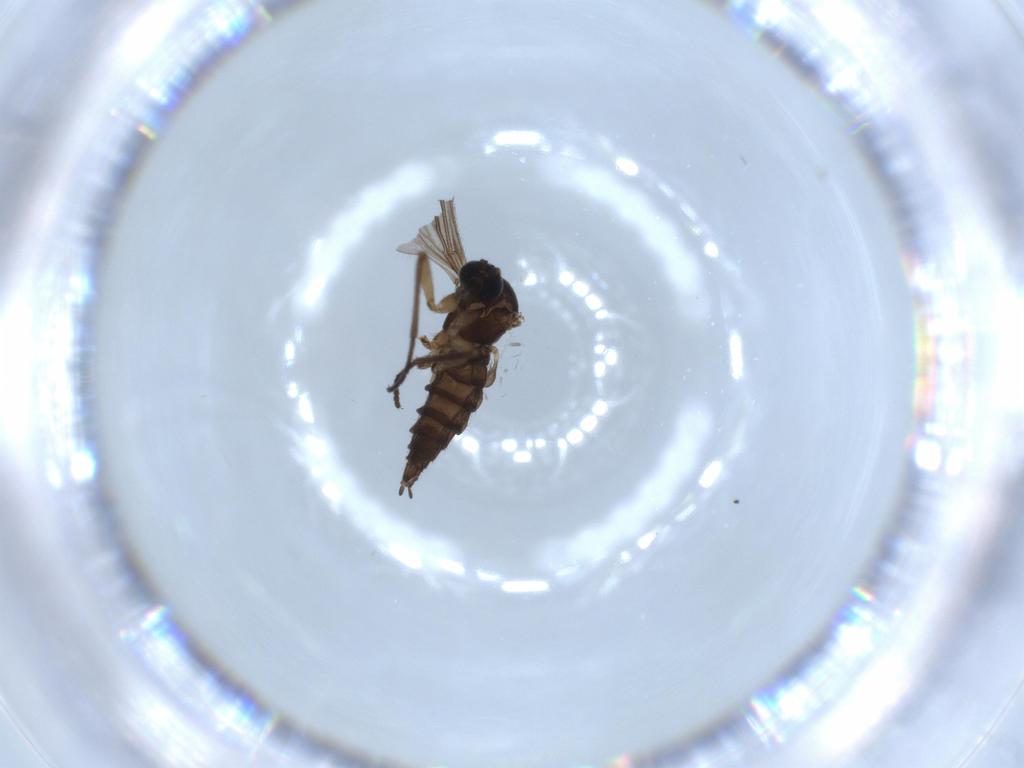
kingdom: Animalia
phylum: Arthropoda
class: Insecta
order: Diptera
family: Sciaridae
